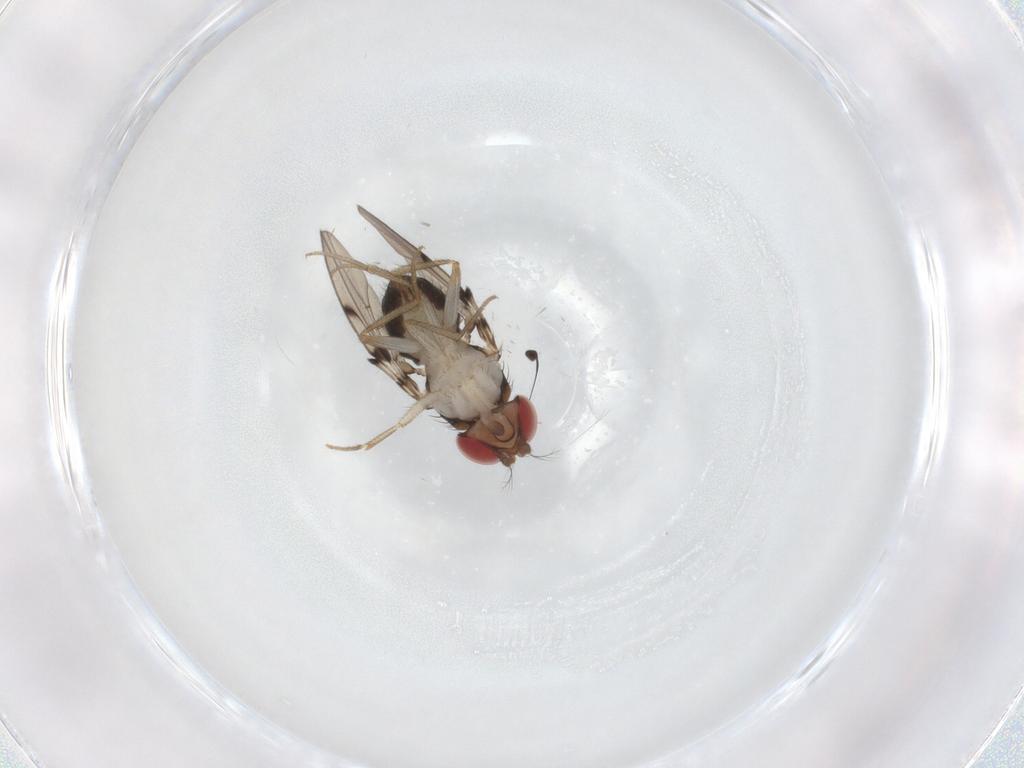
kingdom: Animalia
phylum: Arthropoda
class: Insecta
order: Diptera
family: Drosophilidae
